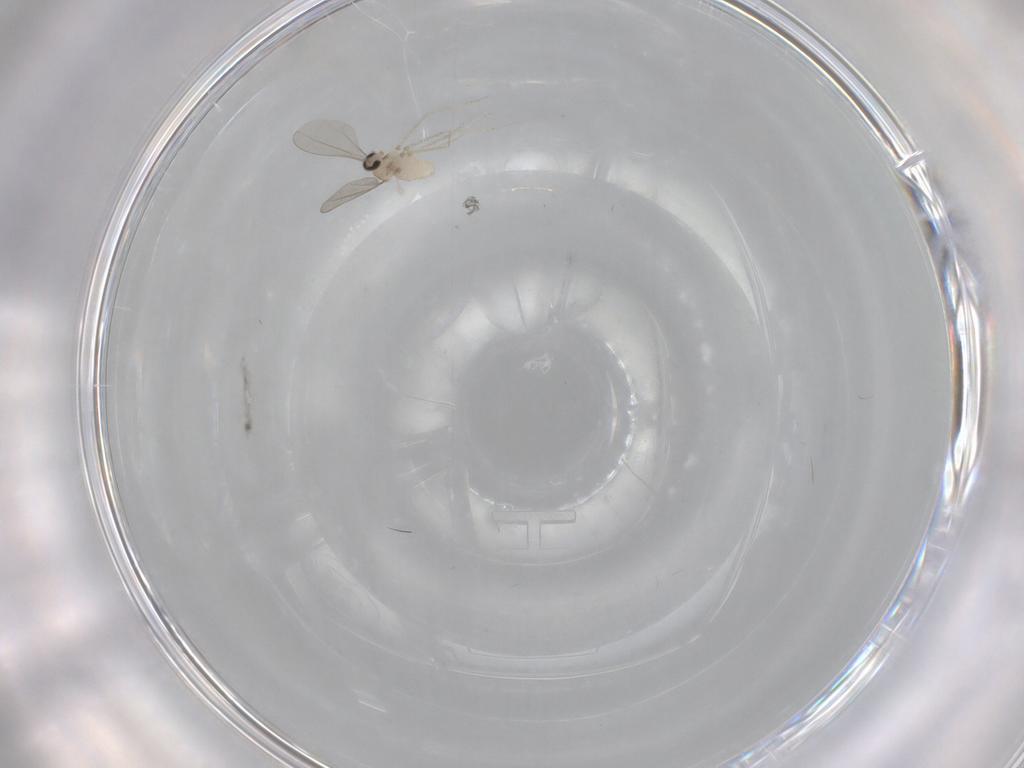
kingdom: Animalia
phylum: Arthropoda
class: Insecta
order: Diptera
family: Cecidomyiidae
